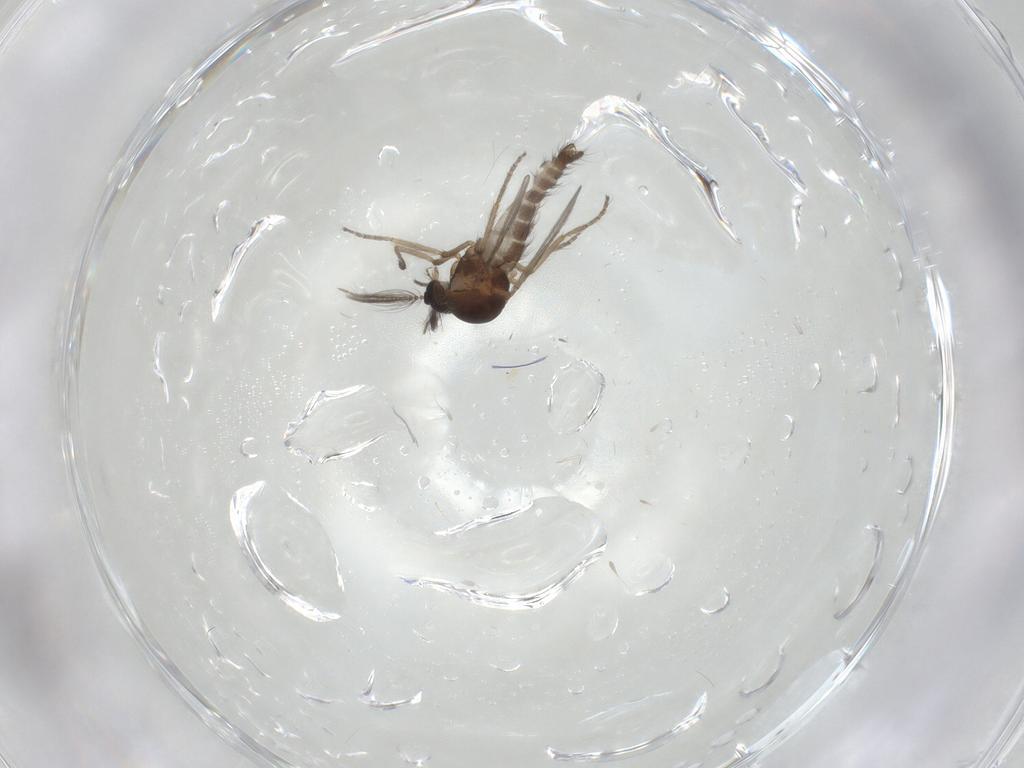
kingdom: Animalia
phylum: Arthropoda
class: Insecta
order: Diptera
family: Ceratopogonidae
